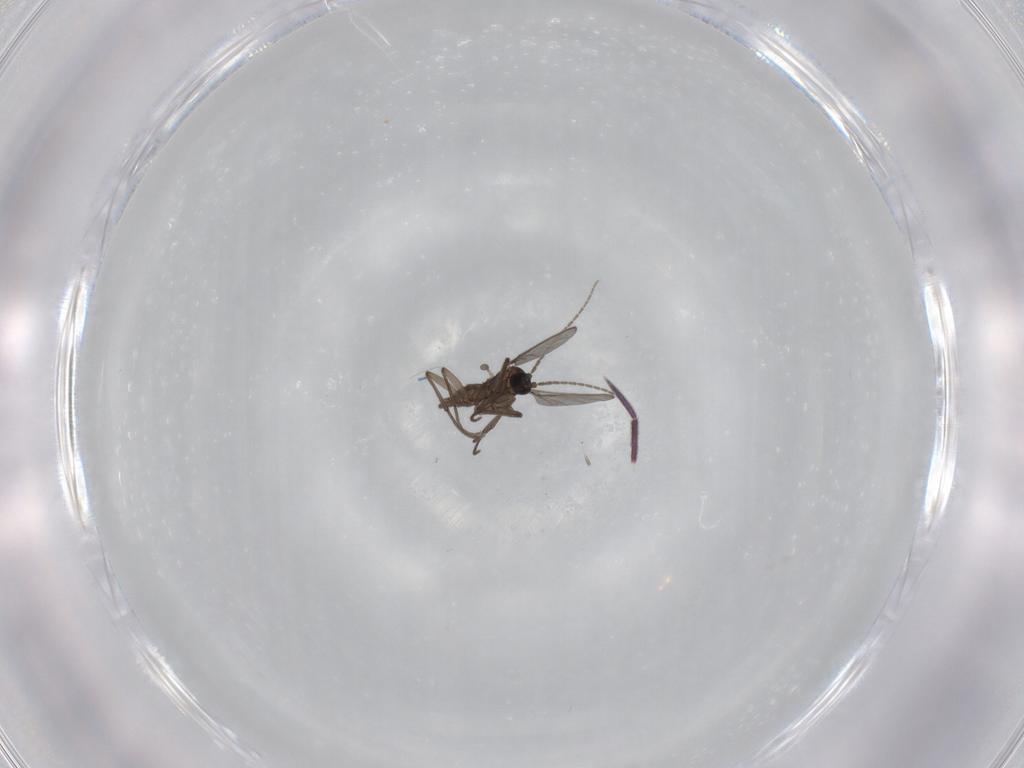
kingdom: Animalia
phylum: Arthropoda
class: Insecta
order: Diptera
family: Sciaridae
